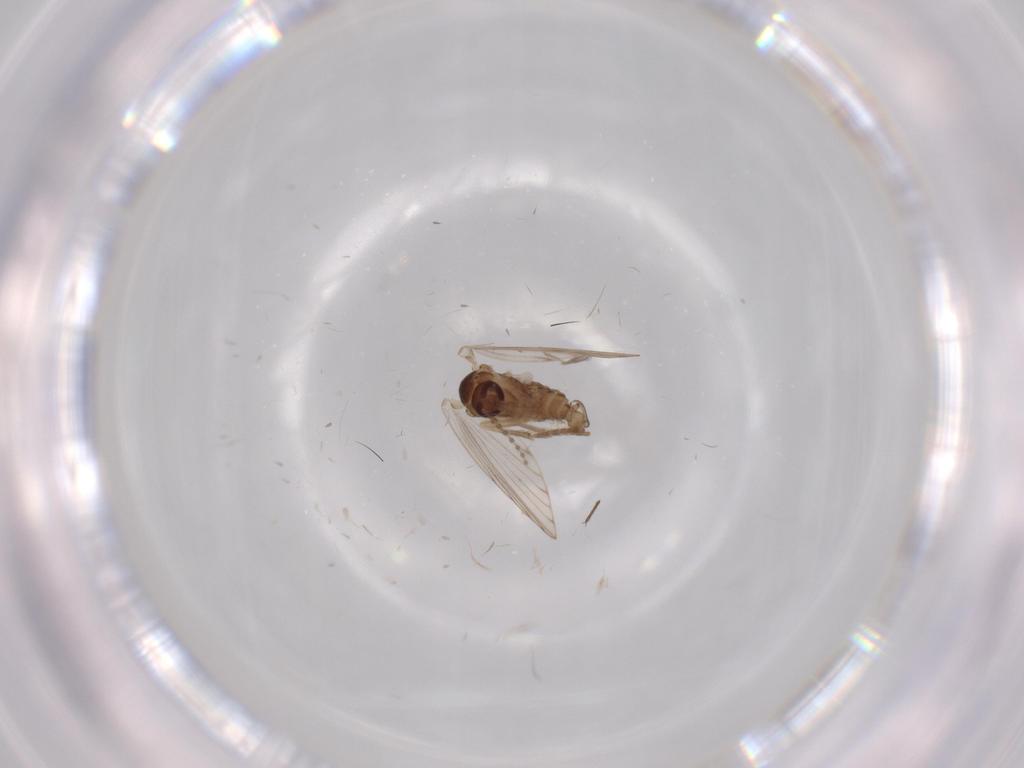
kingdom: Animalia
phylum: Arthropoda
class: Insecta
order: Diptera
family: Psychodidae
